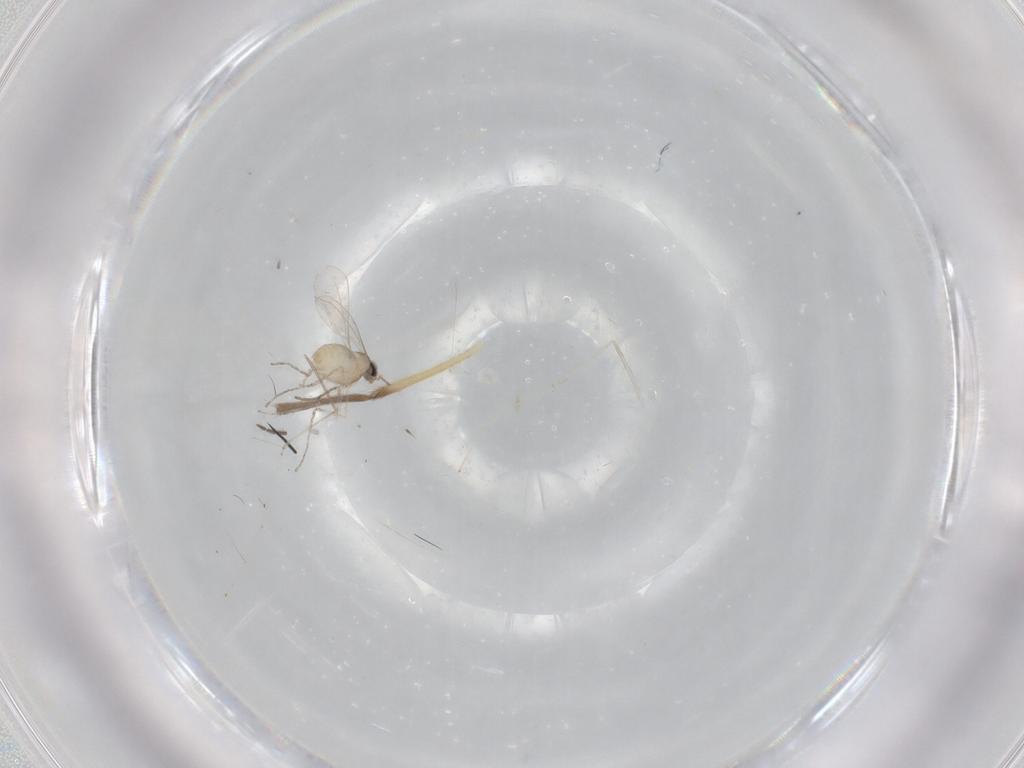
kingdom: Animalia
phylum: Arthropoda
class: Insecta
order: Diptera
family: Chironomidae
